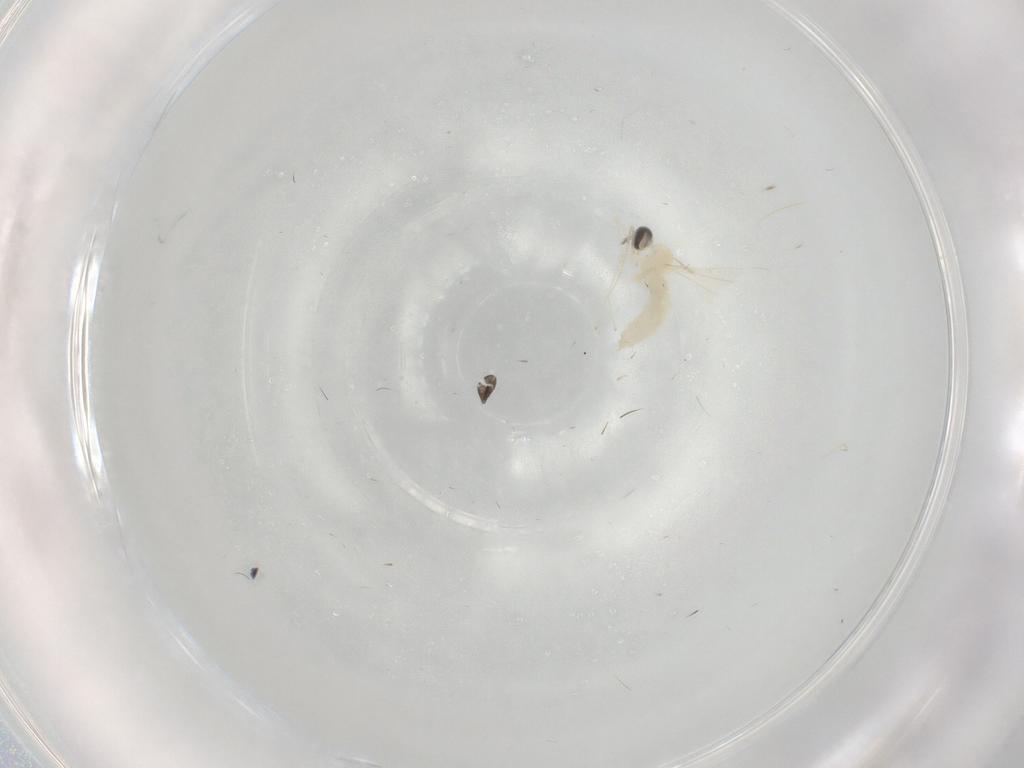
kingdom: Animalia
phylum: Arthropoda
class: Insecta
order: Diptera
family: Cecidomyiidae
